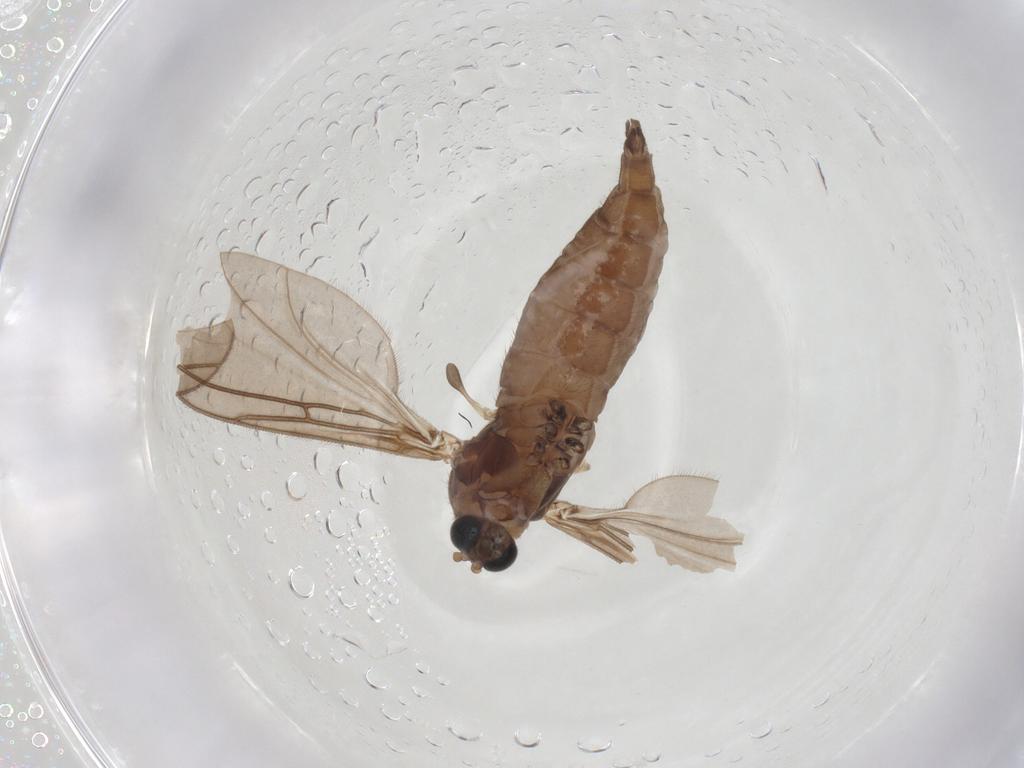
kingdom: Animalia
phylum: Arthropoda
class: Insecta
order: Diptera
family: Sciaridae
